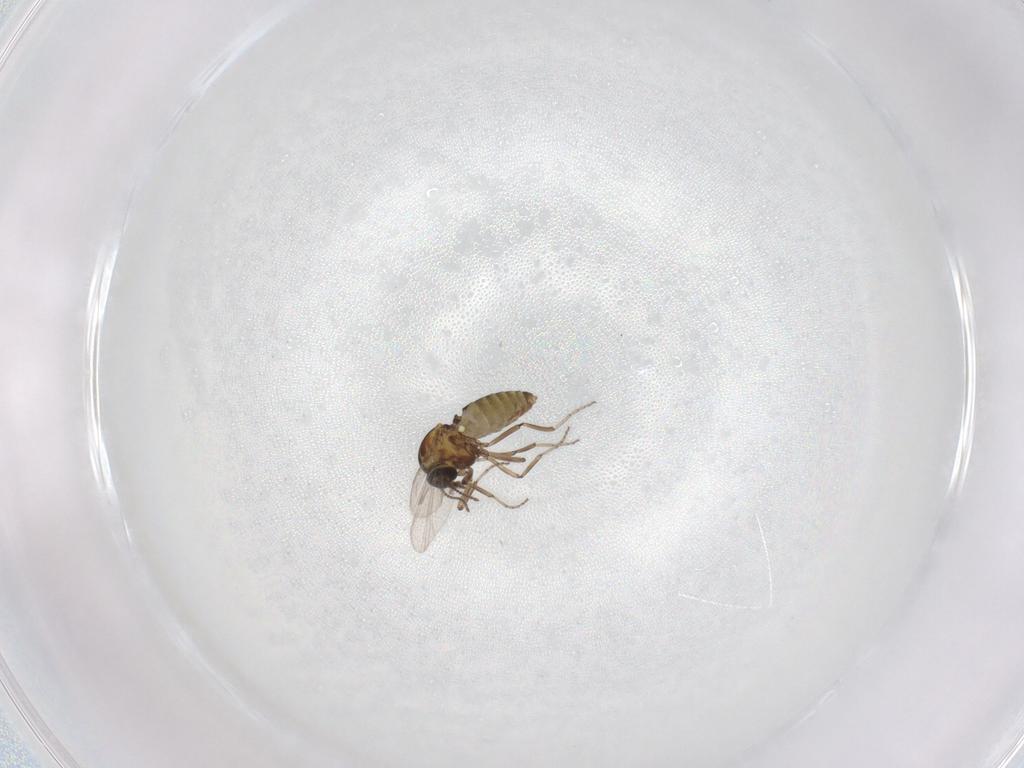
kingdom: Animalia
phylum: Arthropoda
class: Insecta
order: Diptera
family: Ceratopogonidae
